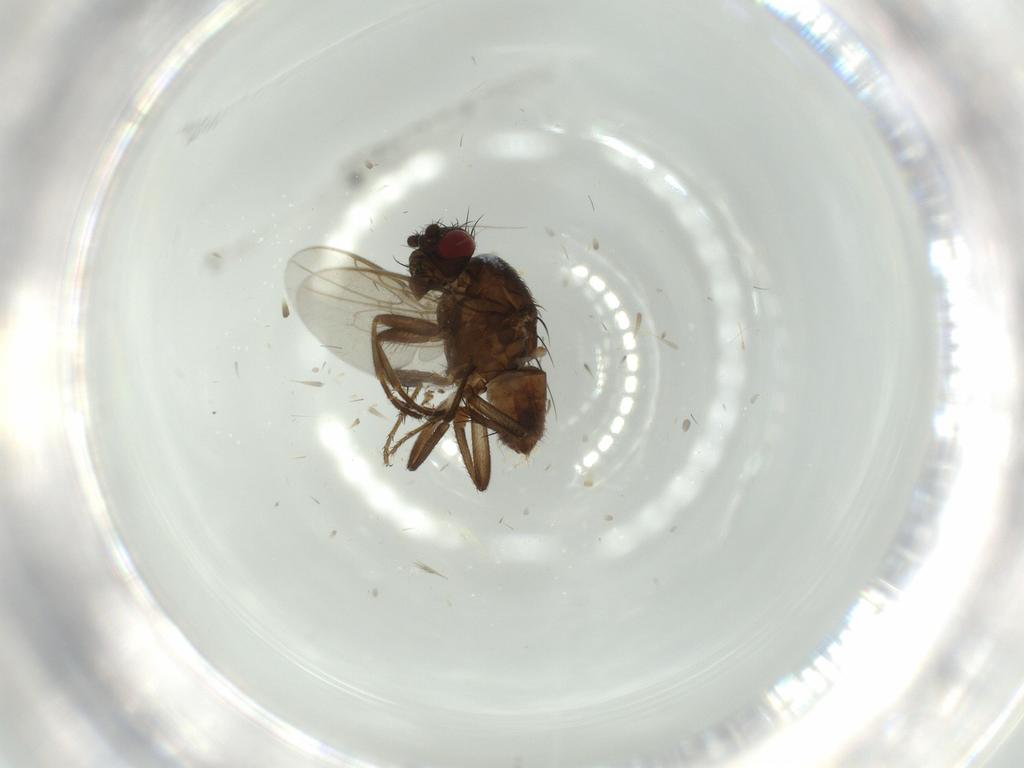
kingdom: Animalia
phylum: Arthropoda
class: Insecta
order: Diptera
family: Sphaeroceridae
